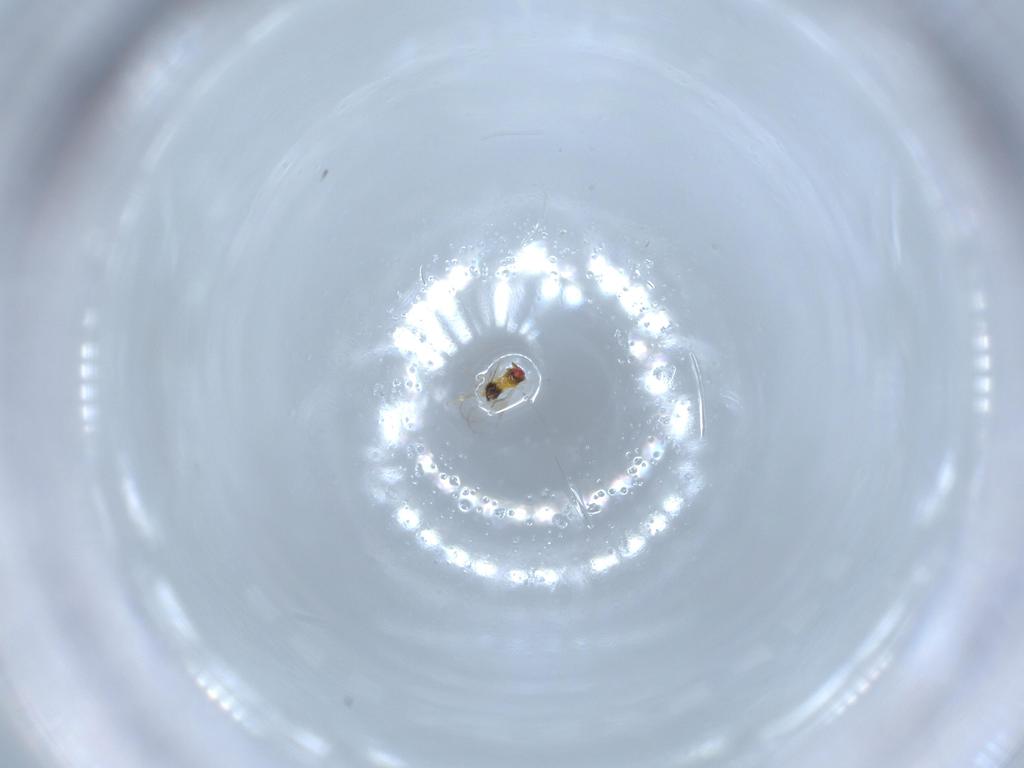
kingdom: Animalia
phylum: Arthropoda
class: Insecta
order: Hymenoptera
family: Trichogrammatidae
